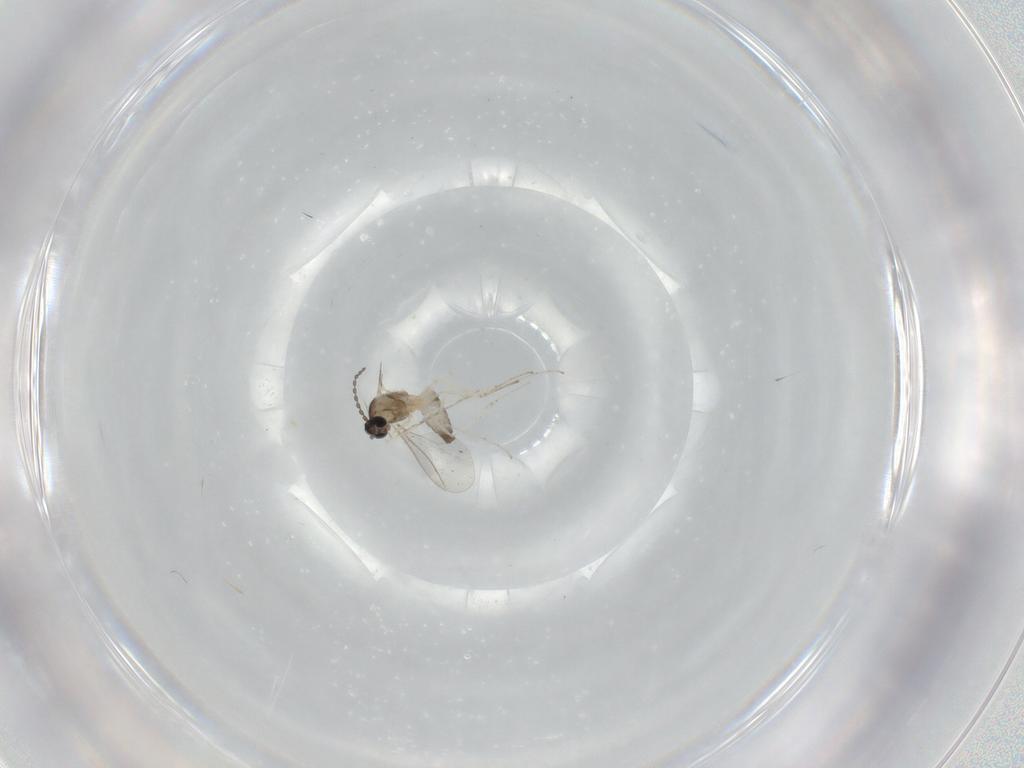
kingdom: Animalia
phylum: Arthropoda
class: Insecta
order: Diptera
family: Cecidomyiidae
